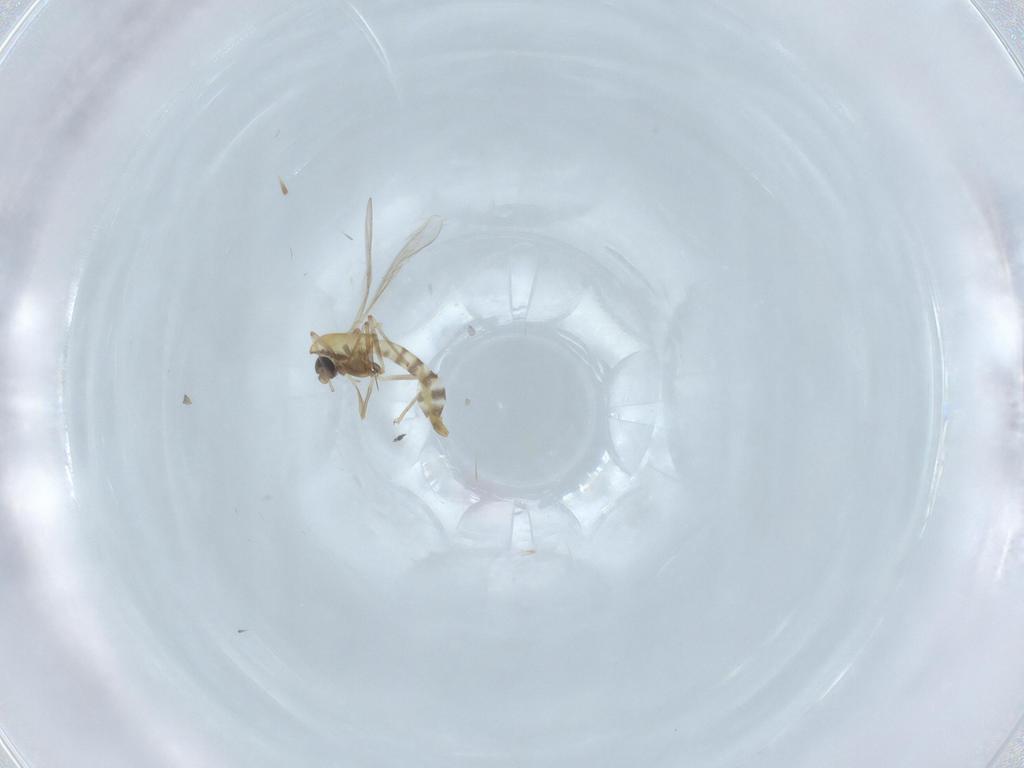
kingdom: Animalia
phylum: Arthropoda
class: Insecta
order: Diptera
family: Chironomidae
